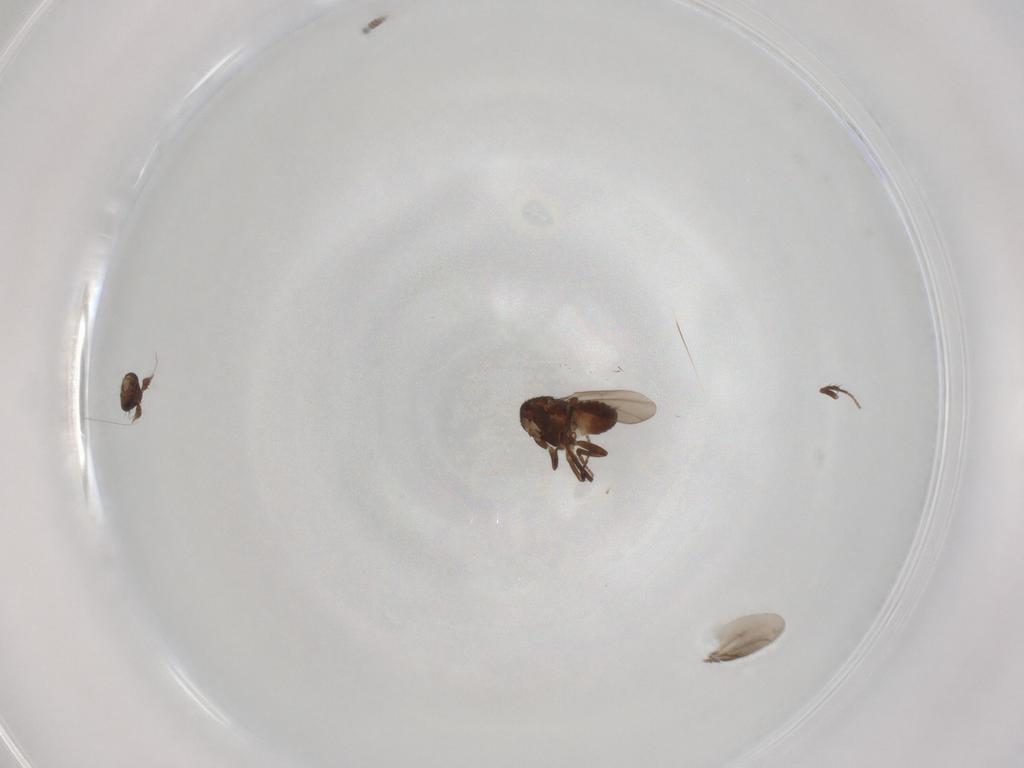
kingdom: Animalia
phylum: Arthropoda
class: Insecta
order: Diptera
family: Sphaeroceridae
